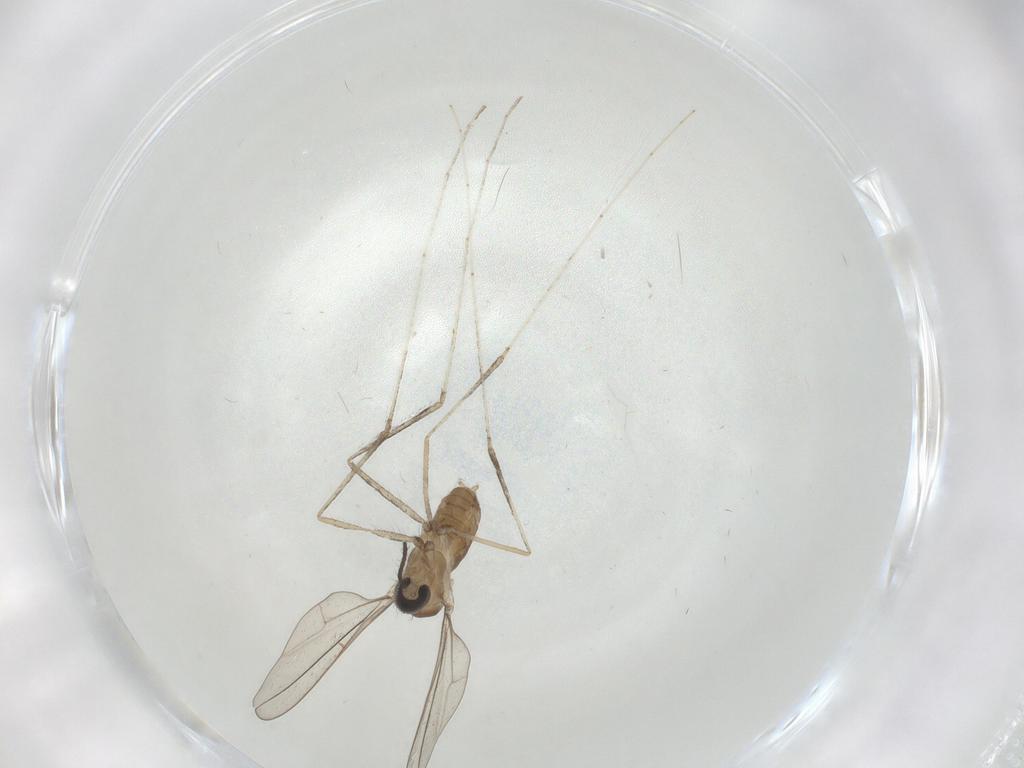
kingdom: Animalia
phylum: Arthropoda
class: Insecta
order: Diptera
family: Cecidomyiidae
